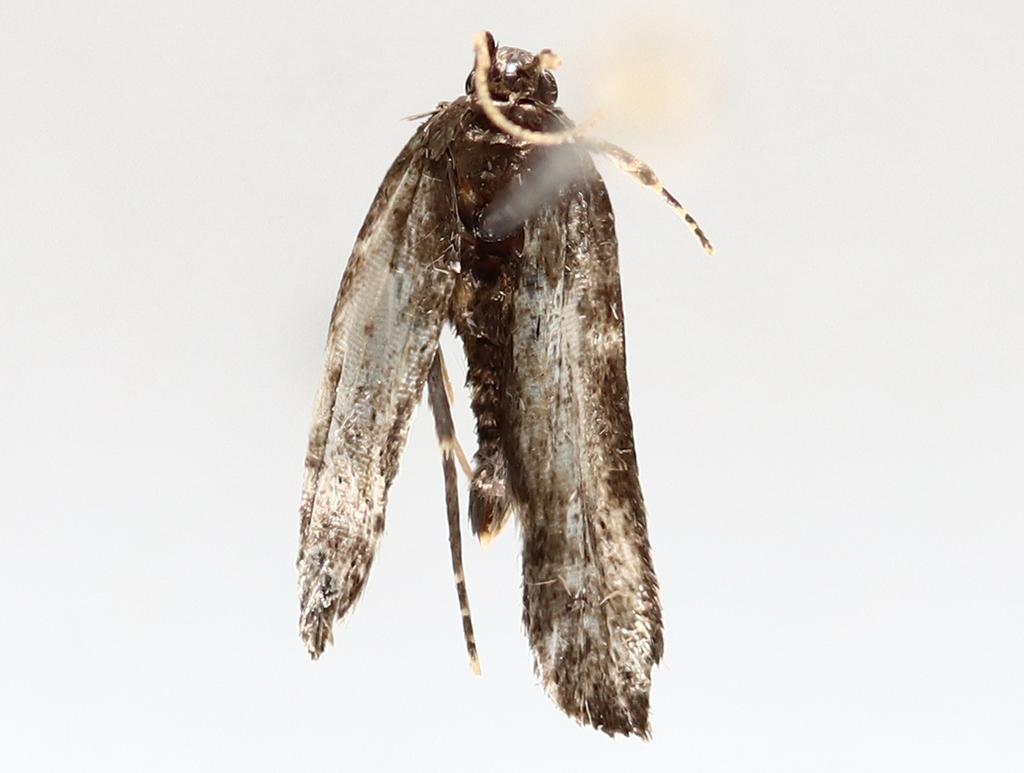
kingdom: Animalia
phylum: Arthropoda
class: Insecta
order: Diptera
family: Phoridae
